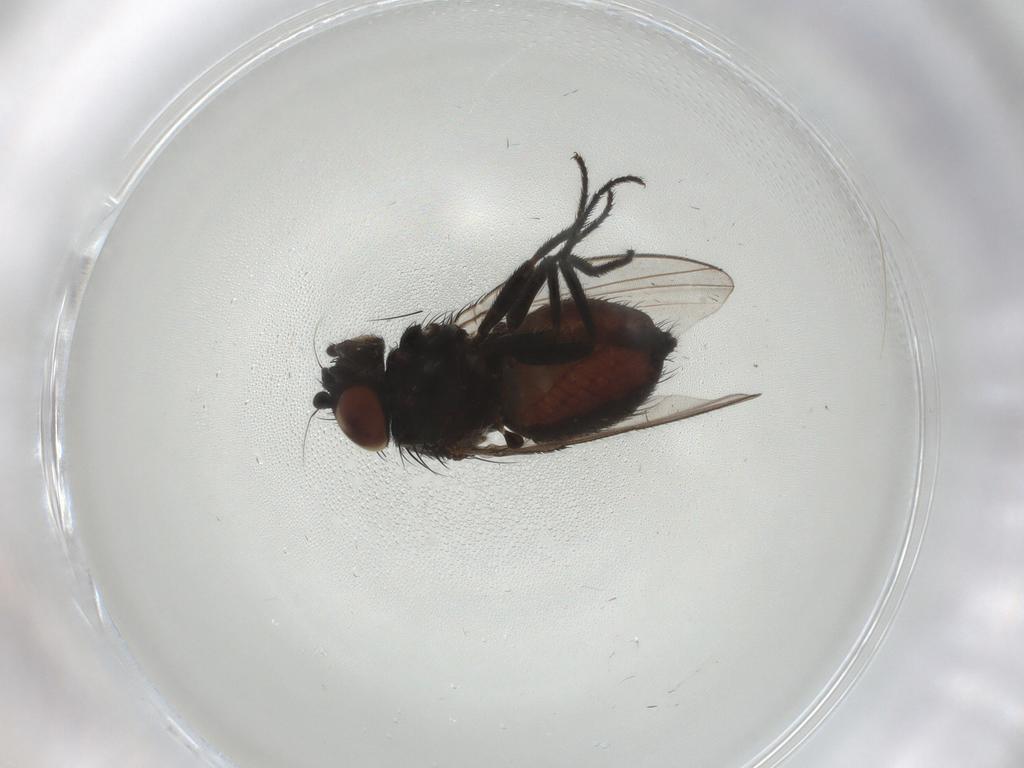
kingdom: Animalia
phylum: Arthropoda
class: Insecta
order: Diptera
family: Milichiidae
